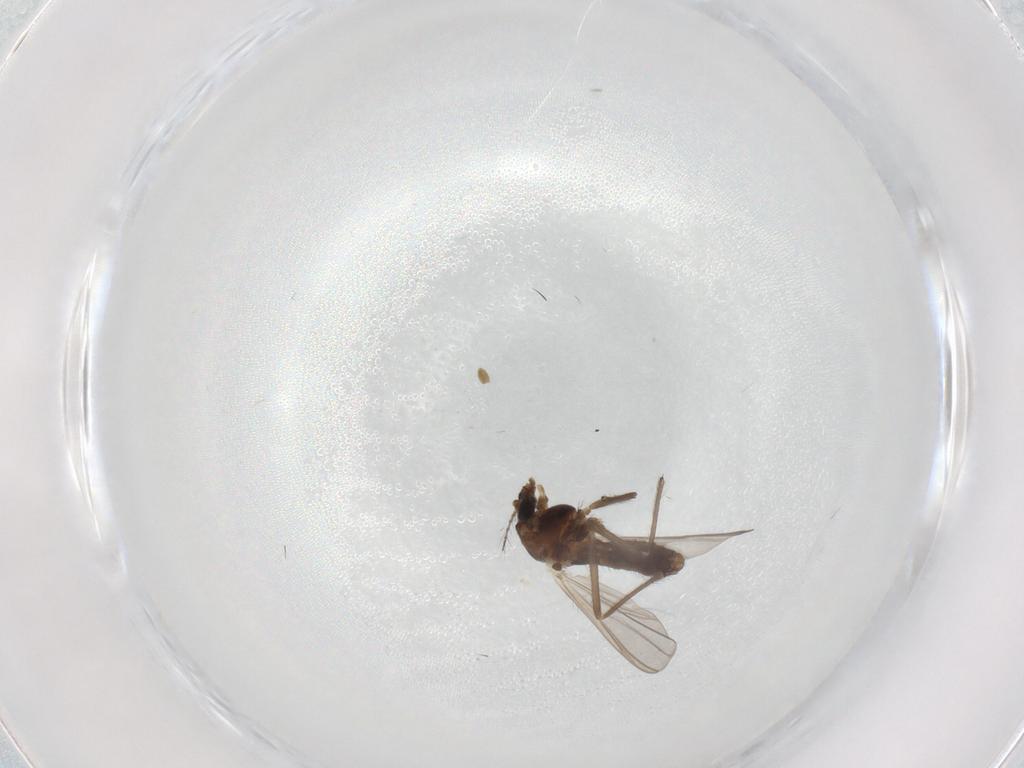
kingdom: Animalia
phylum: Arthropoda
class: Insecta
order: Diptera
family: Chironomidae
